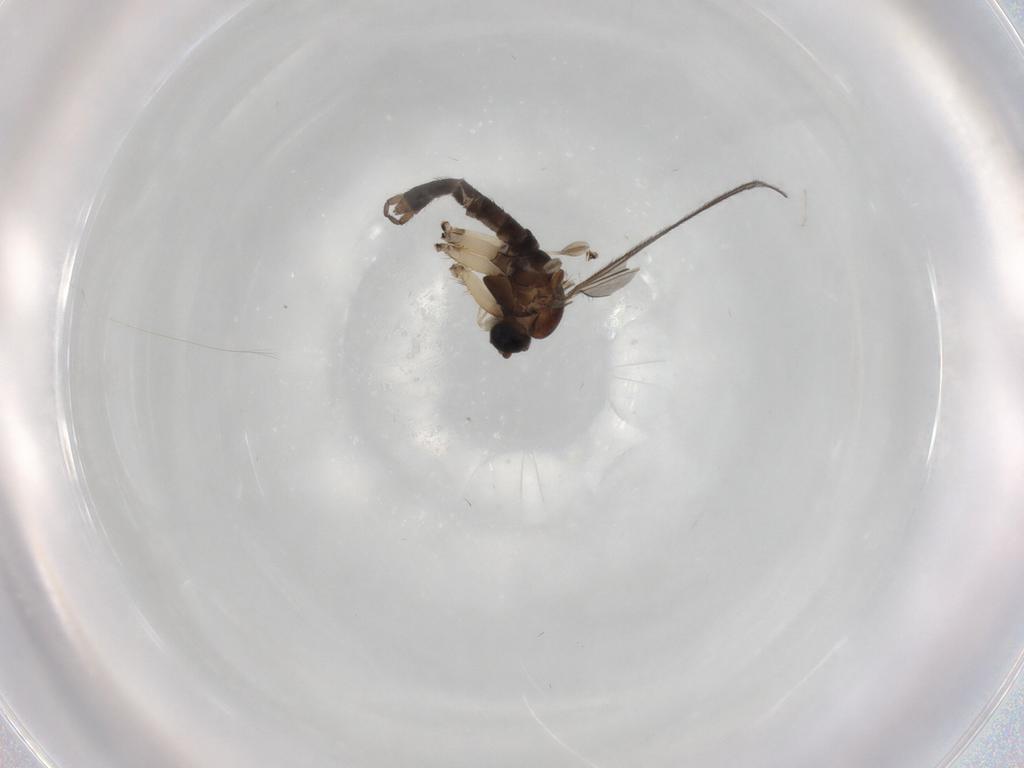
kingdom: Animalia
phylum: Arthropoda
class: Insecta
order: Diptera
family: Sciaridae
